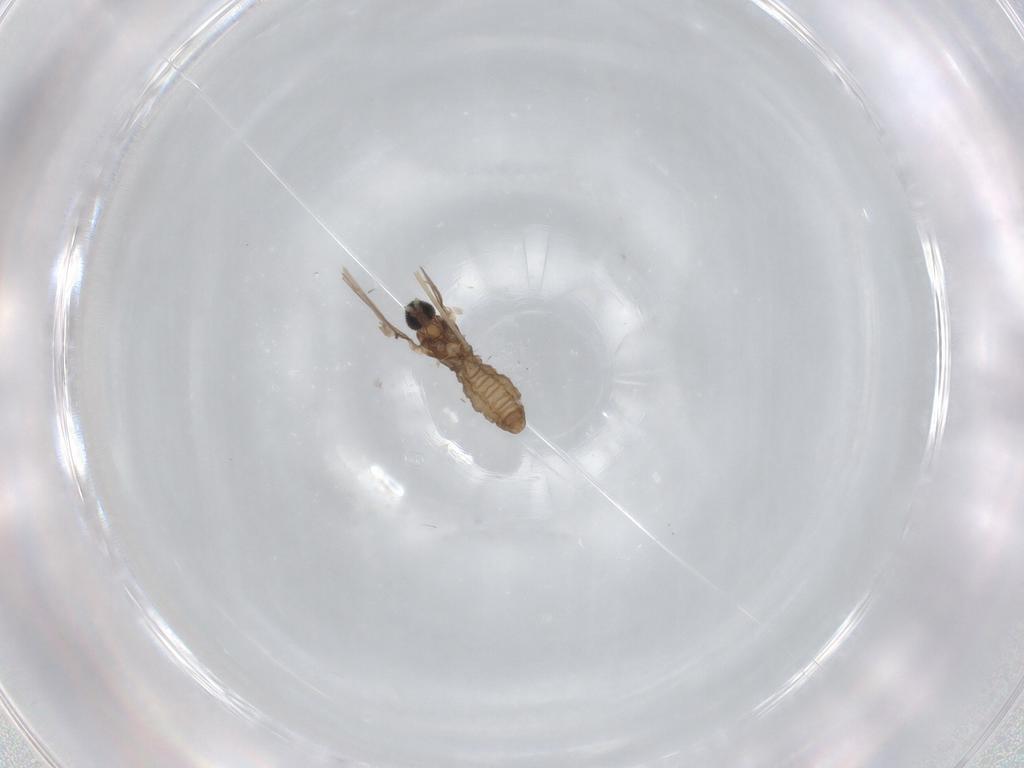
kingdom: Animalia
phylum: Arthropoda
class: Insecta
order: Diptera
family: Cecidomyiidae
